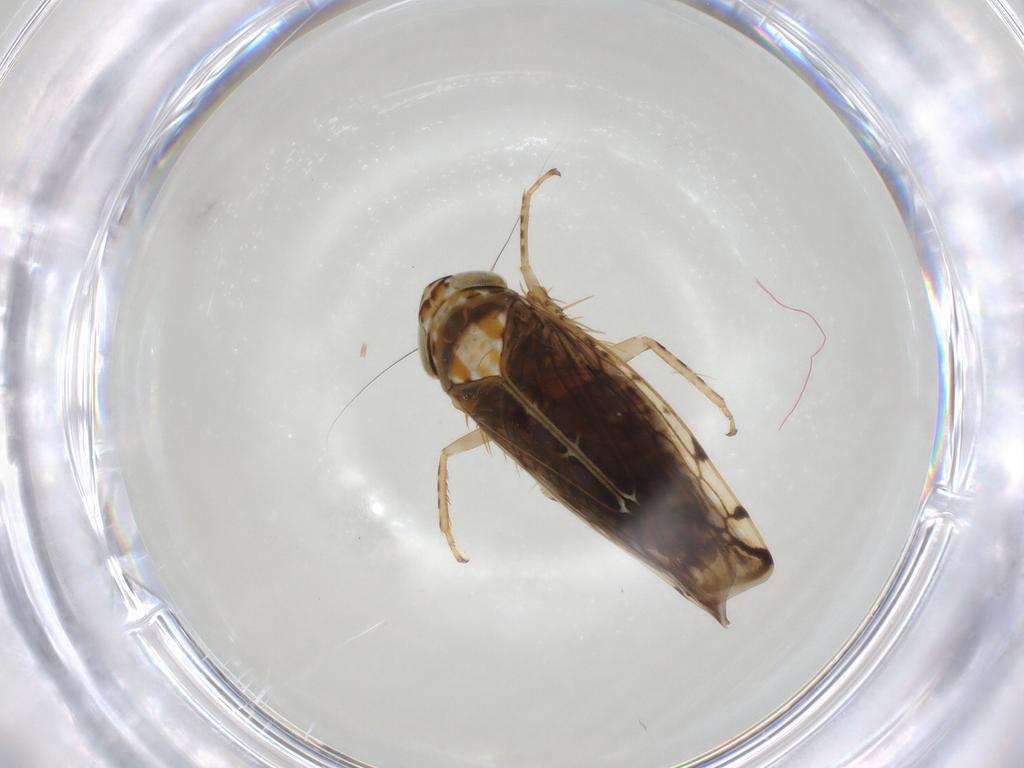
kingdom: Animalia
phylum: Arthropoda
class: Insecta
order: Hemiptera
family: Cicadellidae
